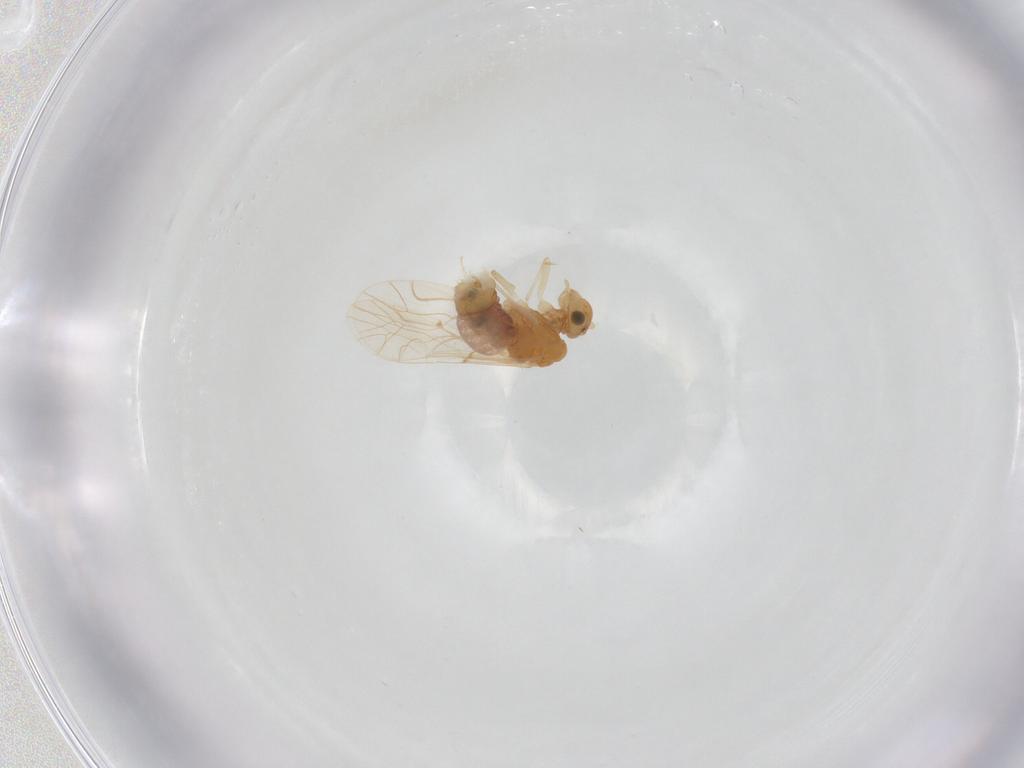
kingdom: Animalia
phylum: Arthropoda
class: Insecta
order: Psocodea
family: Lachesillidae
